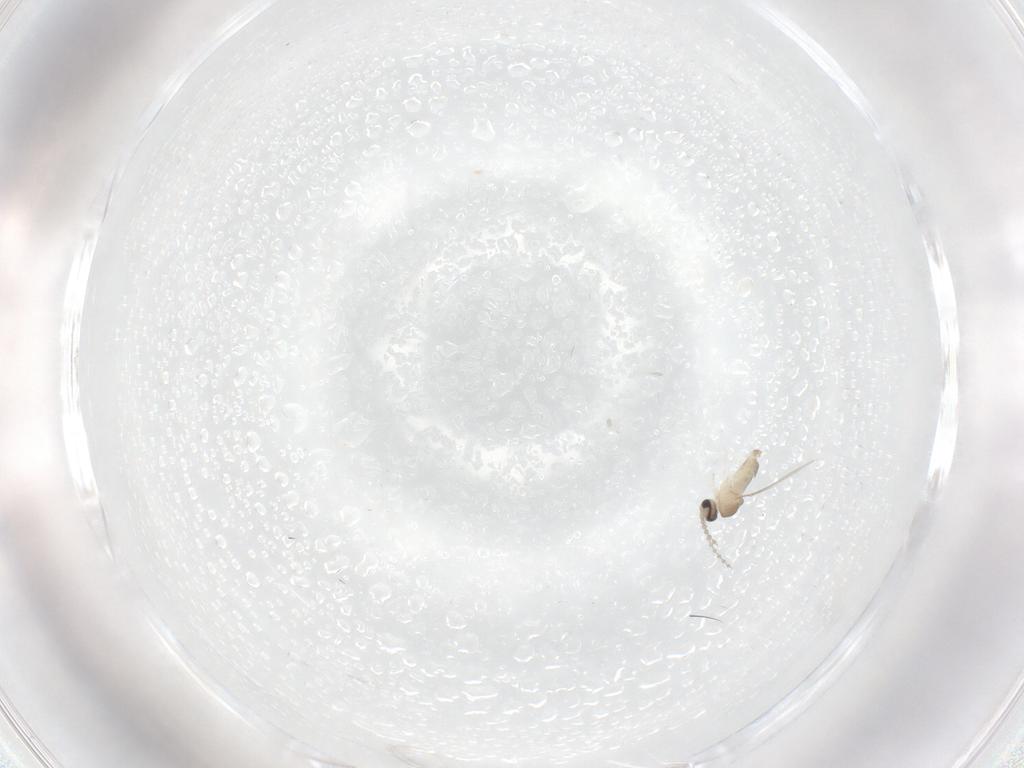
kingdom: Animalia
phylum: Arthropoda
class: Insecta
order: Diptera
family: Cecidomyiidae
